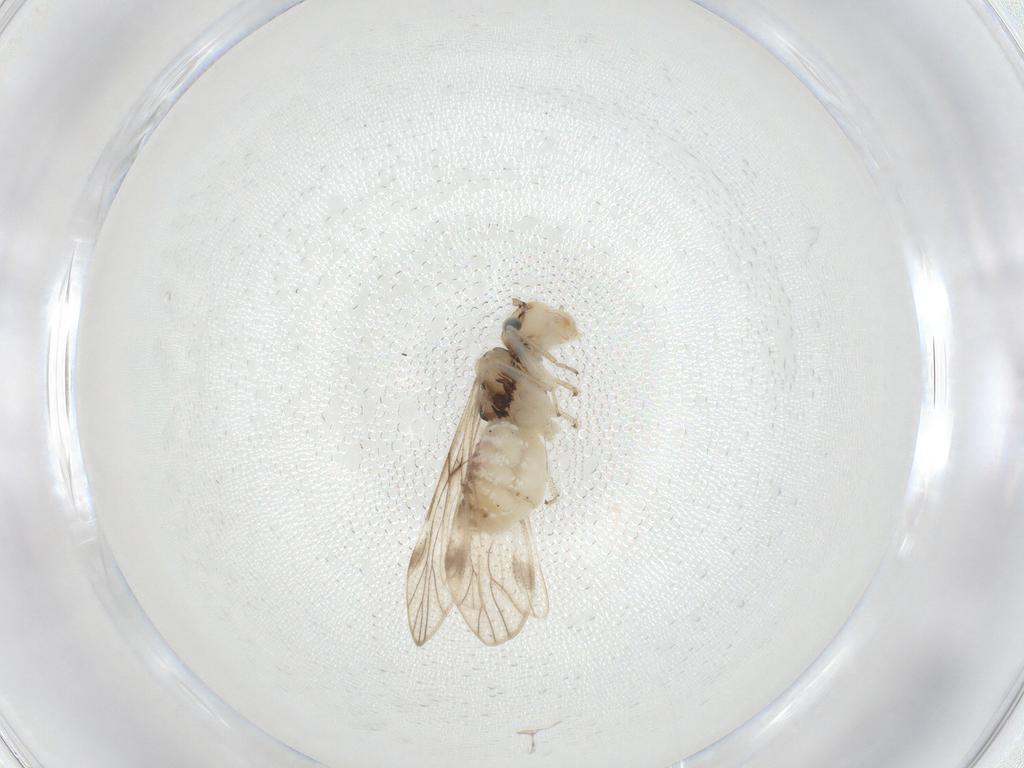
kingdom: Animalia
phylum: Arthropoda
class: Insecta
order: Psocodea
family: Caeciliusidae
